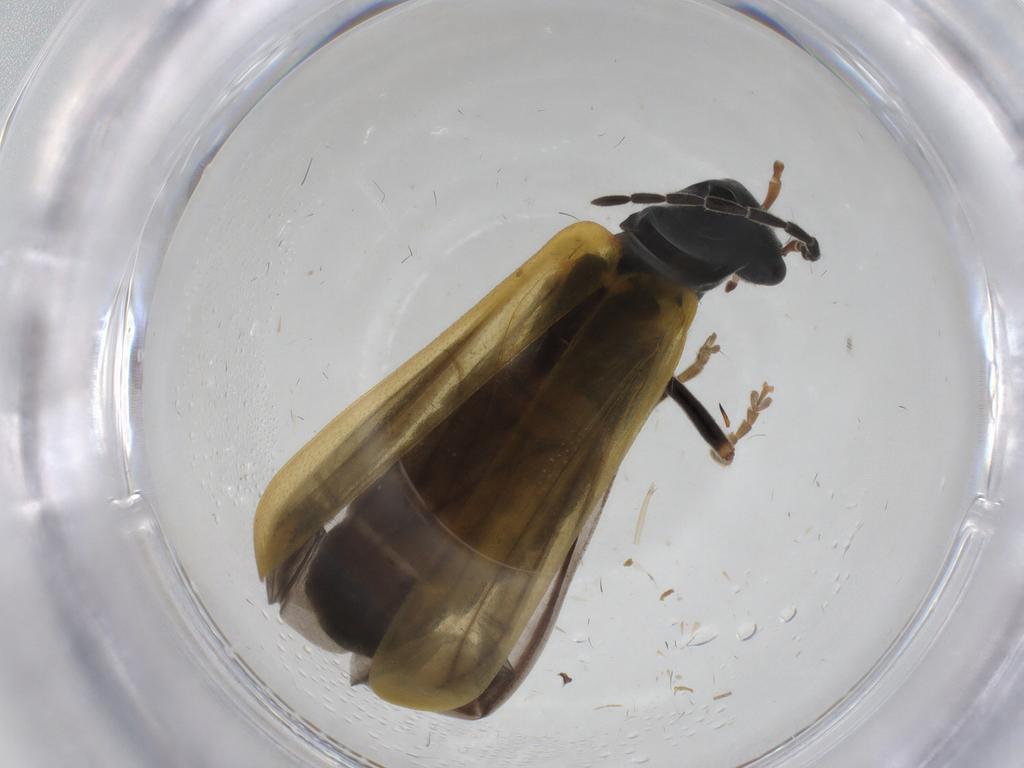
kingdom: Animalia
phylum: Arthropoda
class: Insecta
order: Coleoptera
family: Cantharidae
